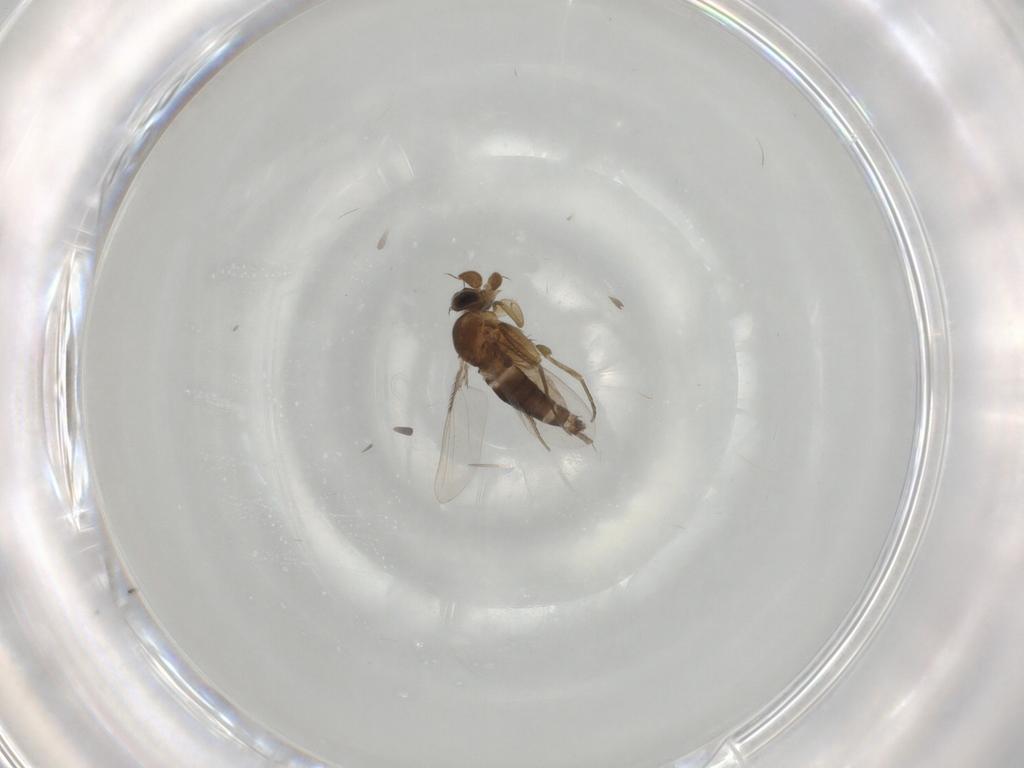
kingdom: Animalia
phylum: Arthropoda
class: Insecta
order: Diptera
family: Phoridae
